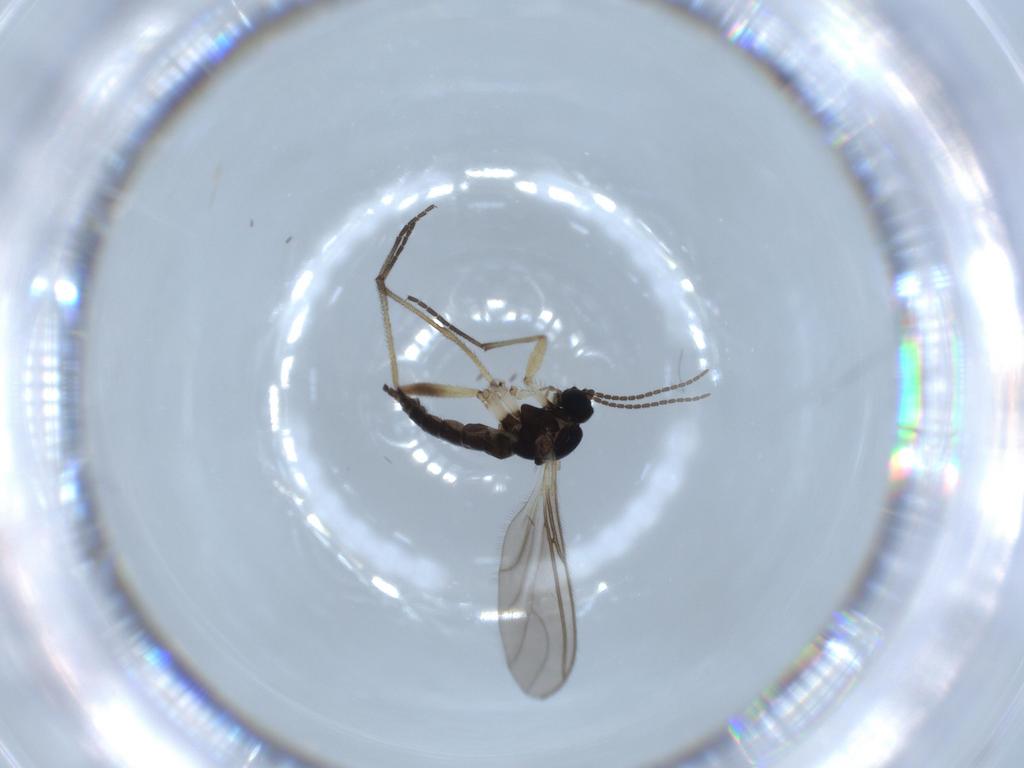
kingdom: Animalia
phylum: Arthropoda
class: Insecta
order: Diptera
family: Sciaridae
